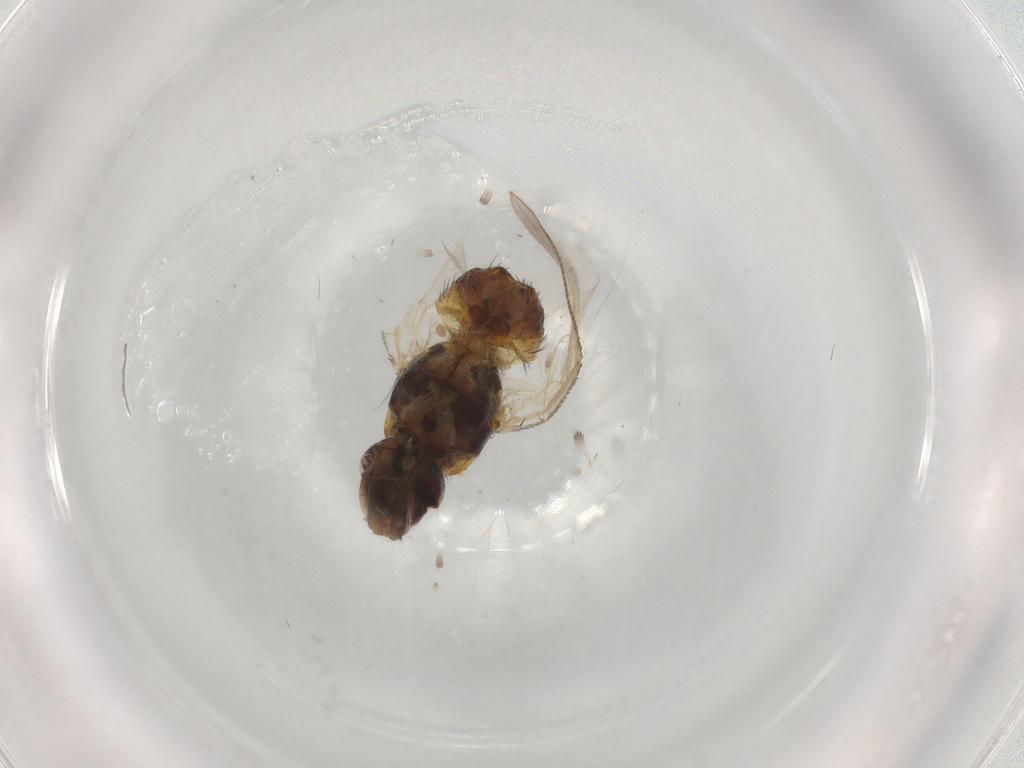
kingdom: Animalia
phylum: Arthropoda
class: Insecta
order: Diptera
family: Muscidae
